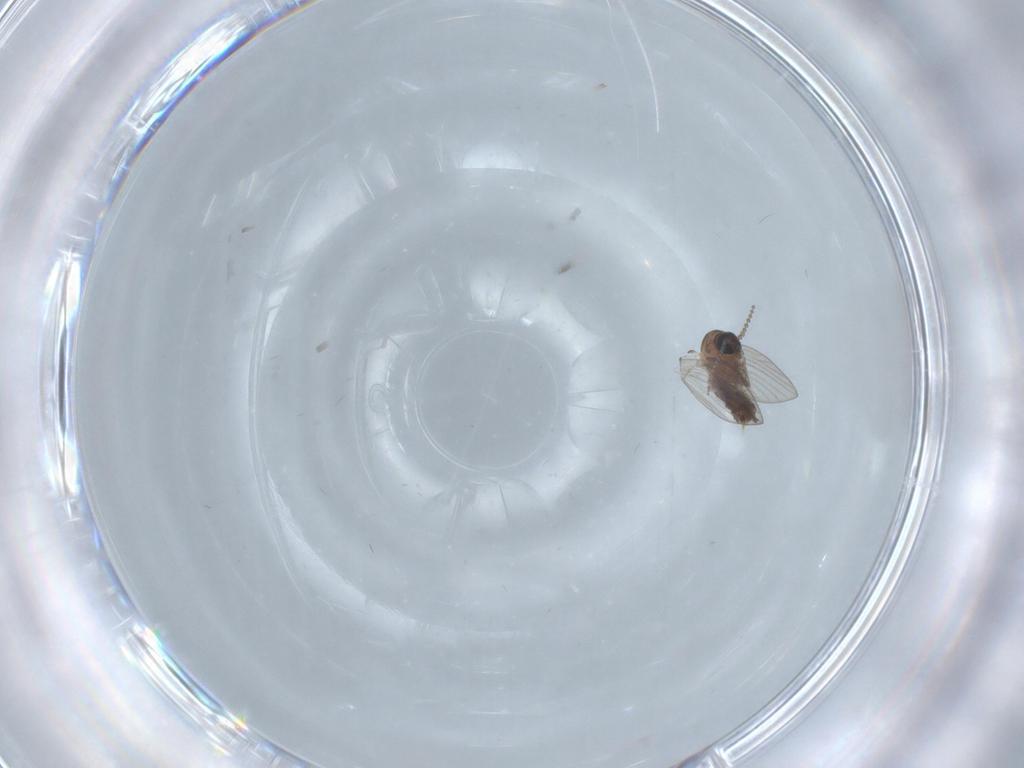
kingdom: Animalia
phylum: Arthropoda
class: Insecta
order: Diptera
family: Psychodidae
